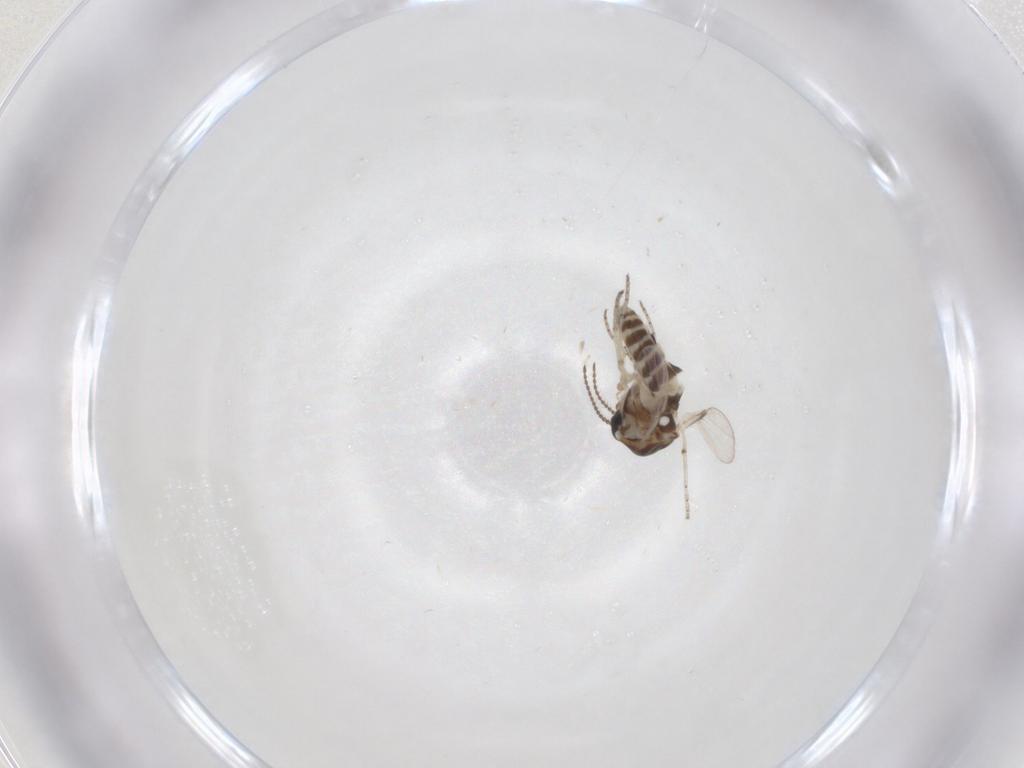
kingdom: Animalia
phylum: Arthropoda
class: Insecta
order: Diptera
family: Ceratopogonidae
